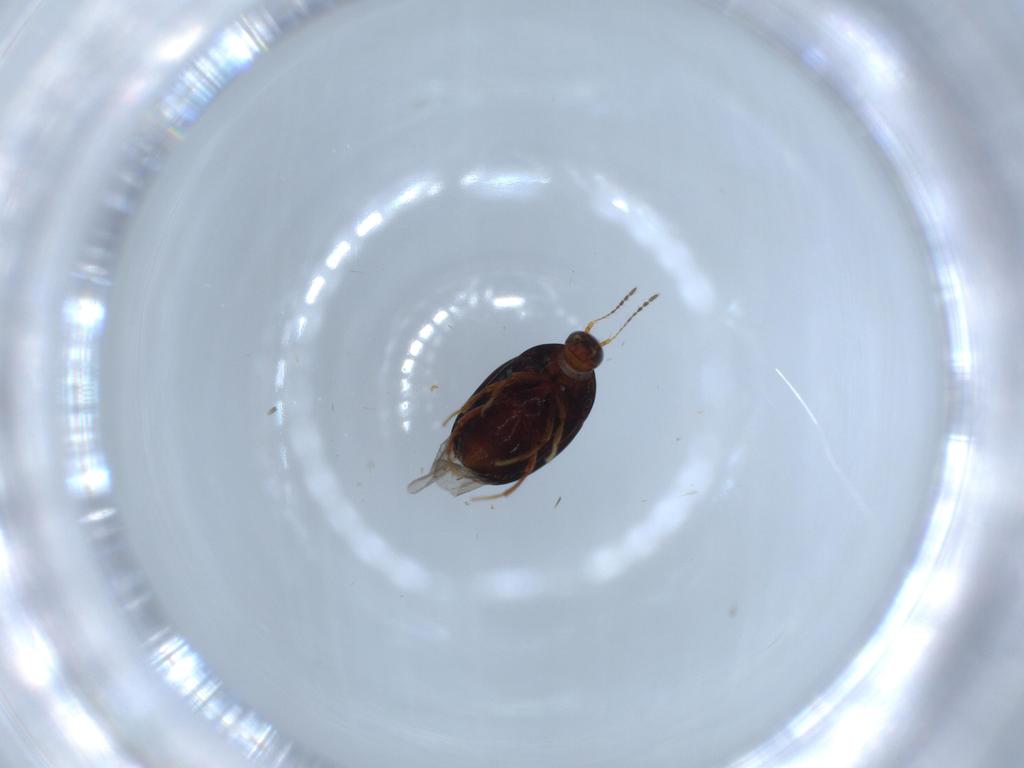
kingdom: Animalia
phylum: Arthropoda
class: Insecta
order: Coleoptera
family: Staphylinidae
